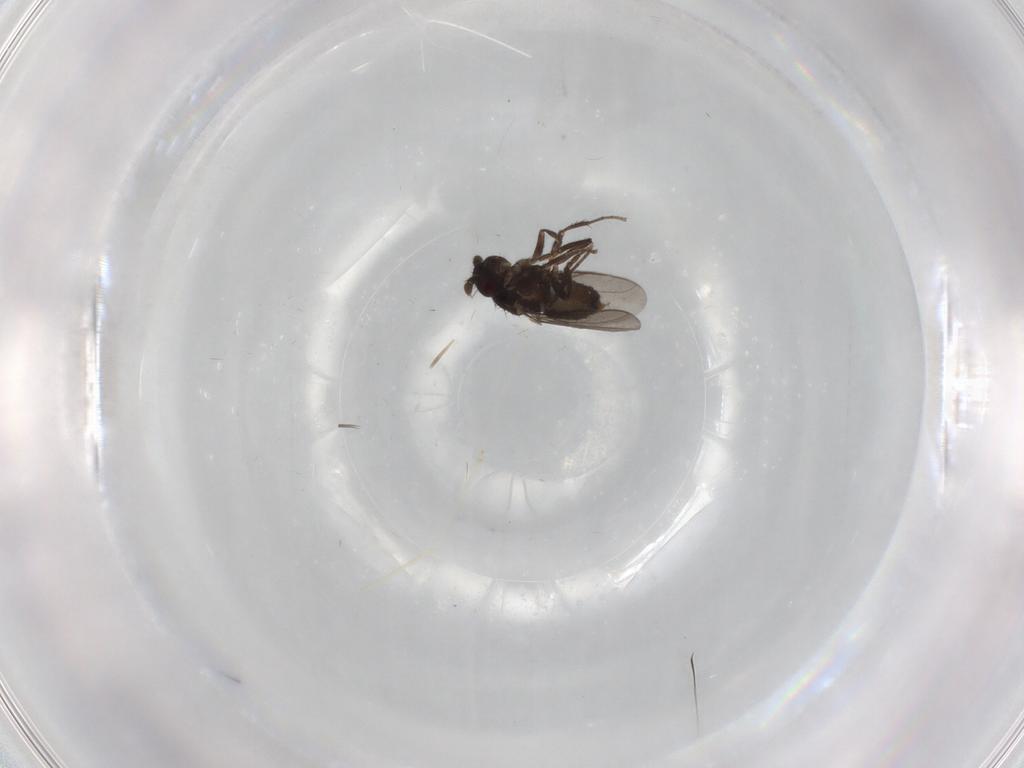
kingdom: Animalia
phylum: Arthropoda
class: Insecta
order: Diptera
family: Sphaeroceridae
